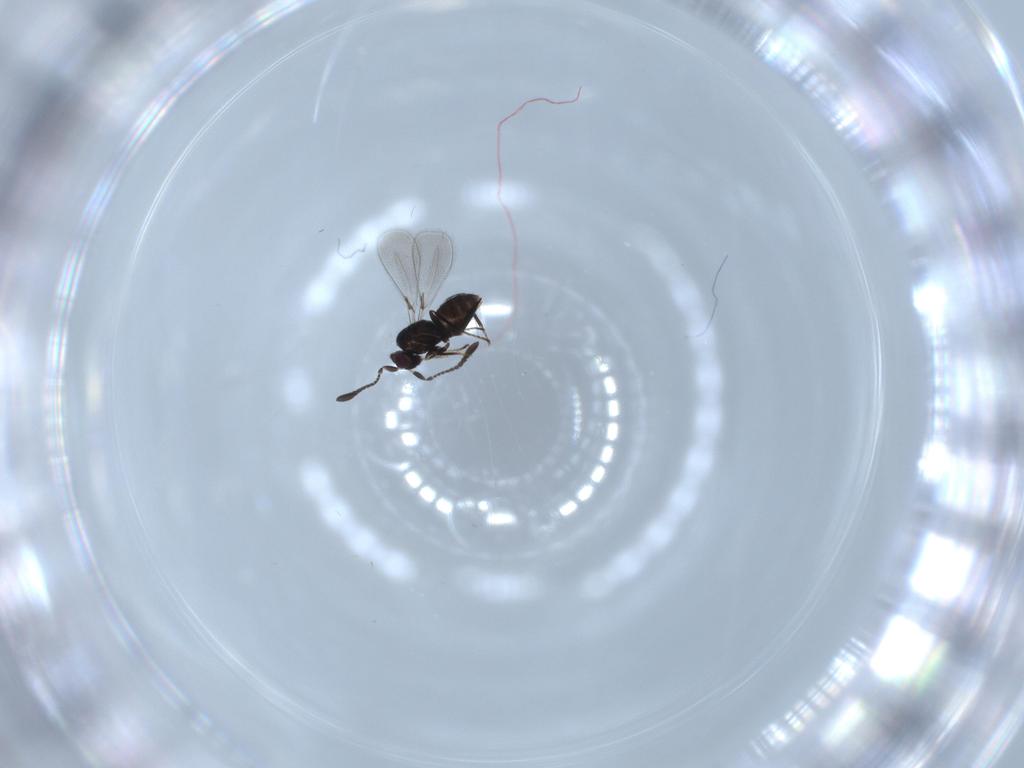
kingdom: Animalia
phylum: Arthropoda
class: Insecta
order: Hymenoptera
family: Mymaridae
